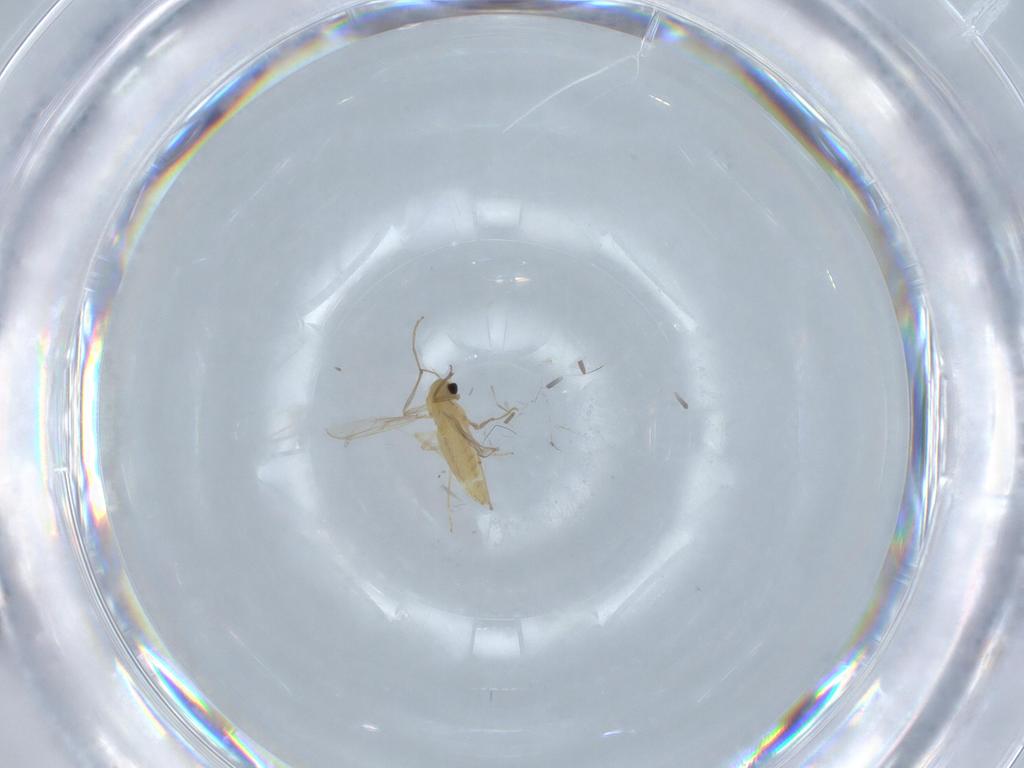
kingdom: Animalia
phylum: Arthropoda
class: Insecta
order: Diptera
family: Chironomidae
